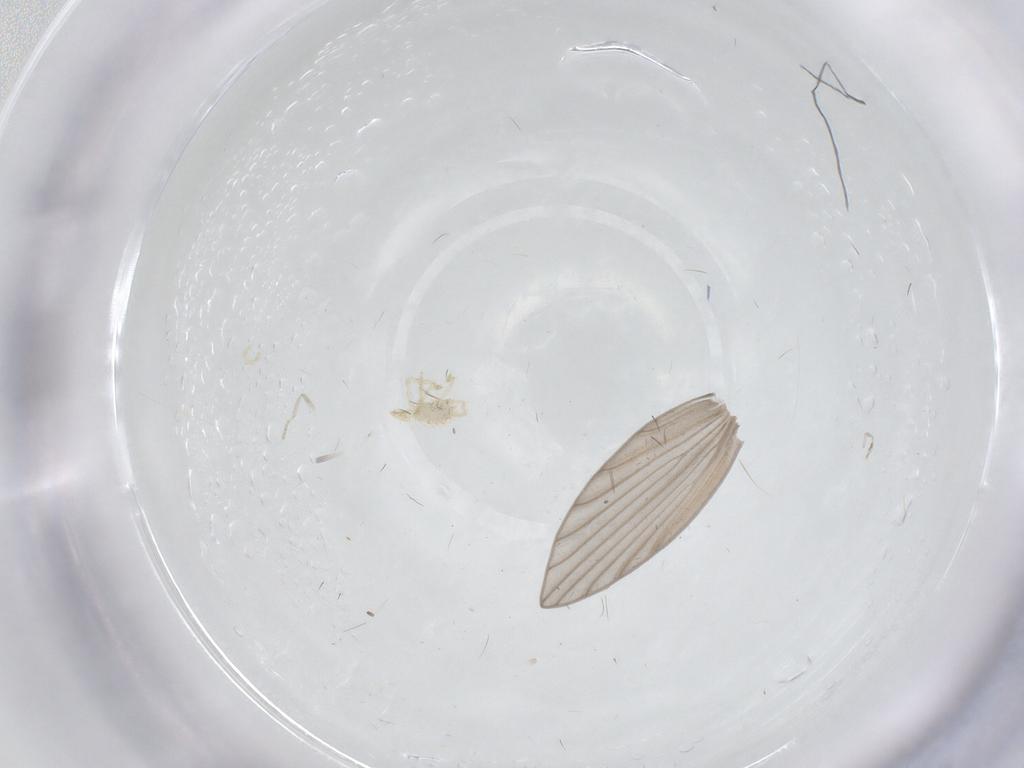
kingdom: Animalia
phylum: Arthropoda
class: Insecta
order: Diptera
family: Cecidomyiidae
